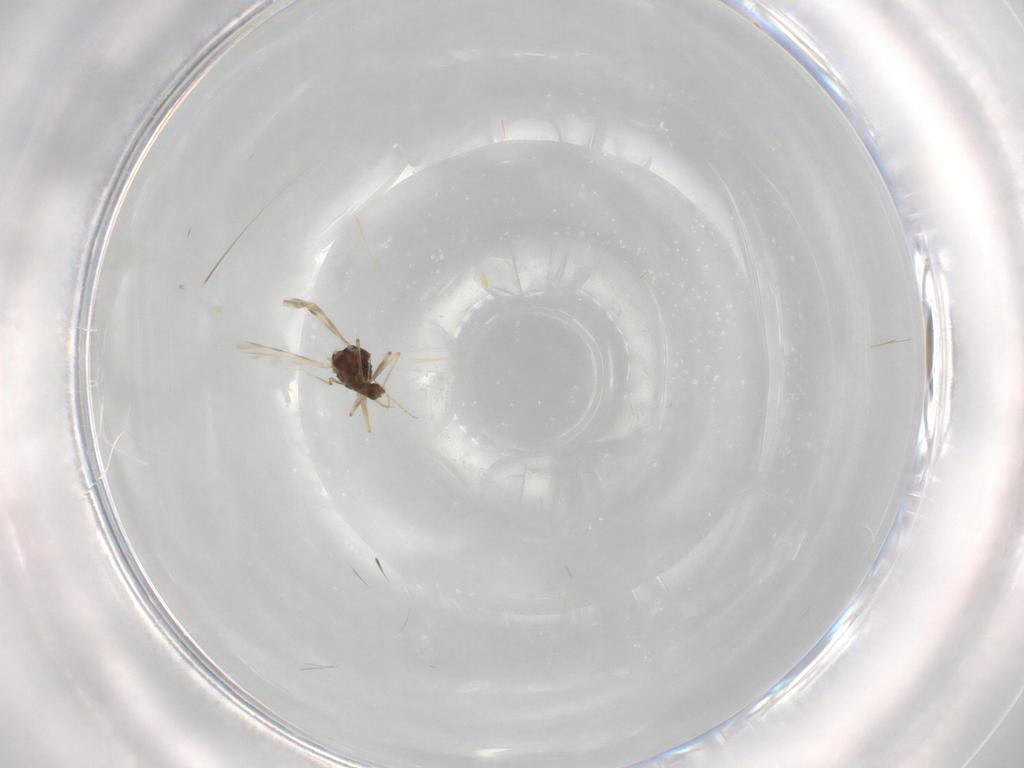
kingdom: Animalia
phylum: Arthropoda
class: Insecta
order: Diptera
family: Ceratopogonidae
